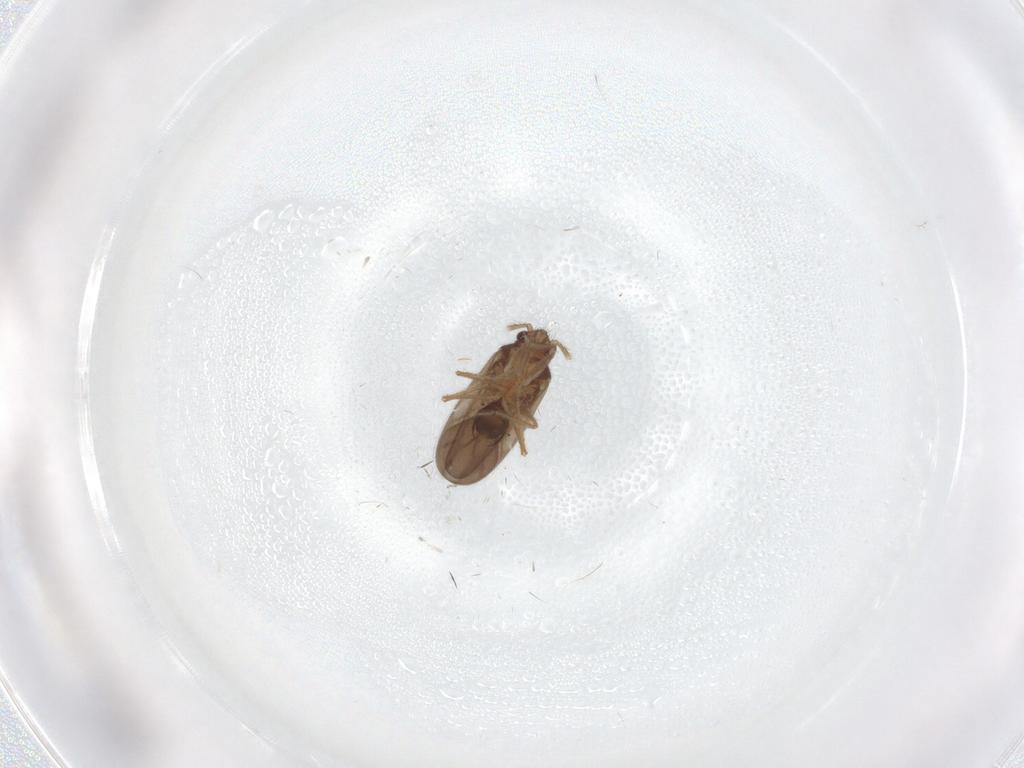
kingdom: Animalia
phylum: Arthropoda
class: Insecta
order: Hemiptera
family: Ceratocombidae
